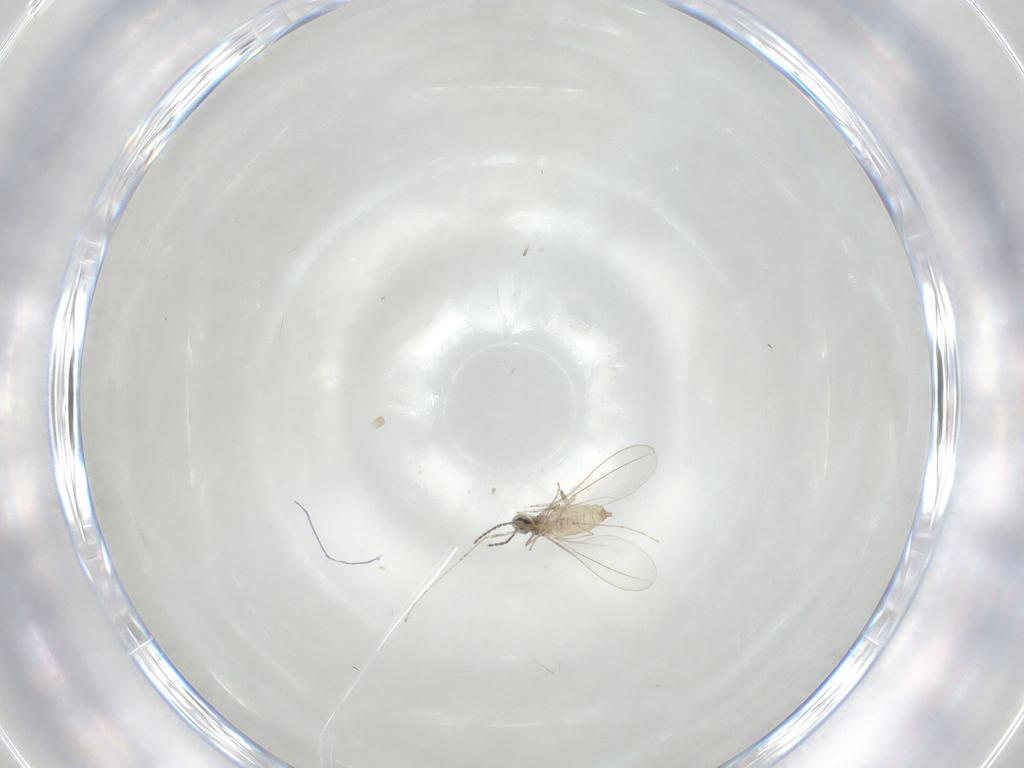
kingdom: Animalia
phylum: Arthropoda
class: Insecta
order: Diptera
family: Cecidomyiidae
